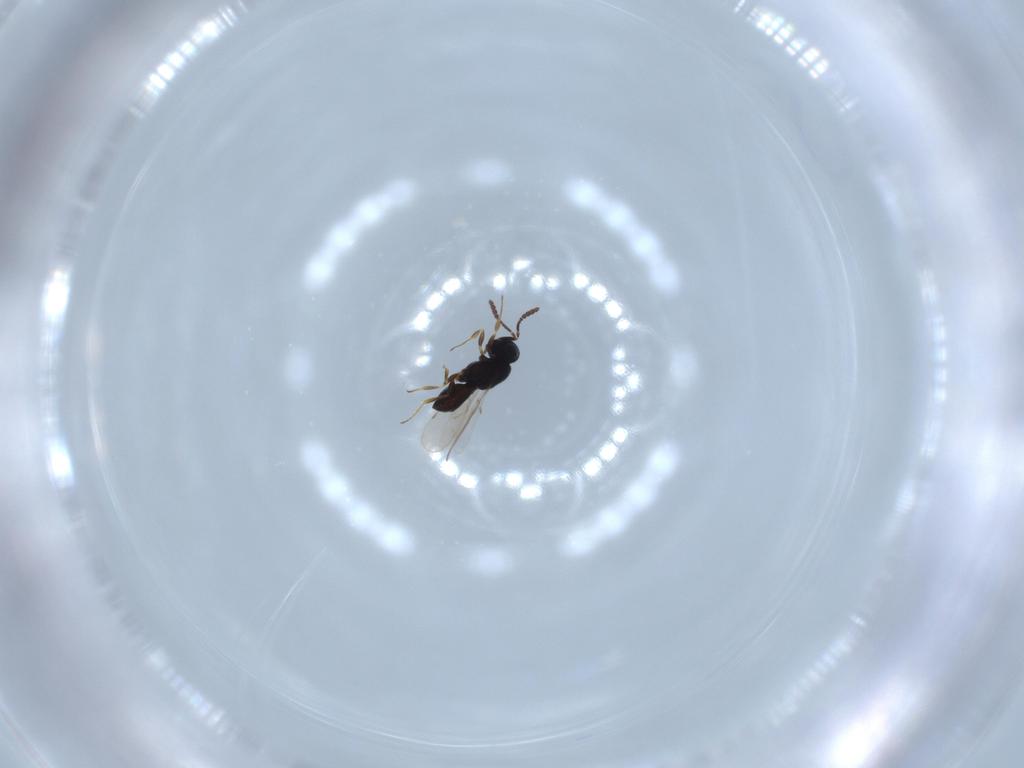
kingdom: Animalia
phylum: Arthropoda
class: Insecta
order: Hymenoptera
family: Scelionidae
